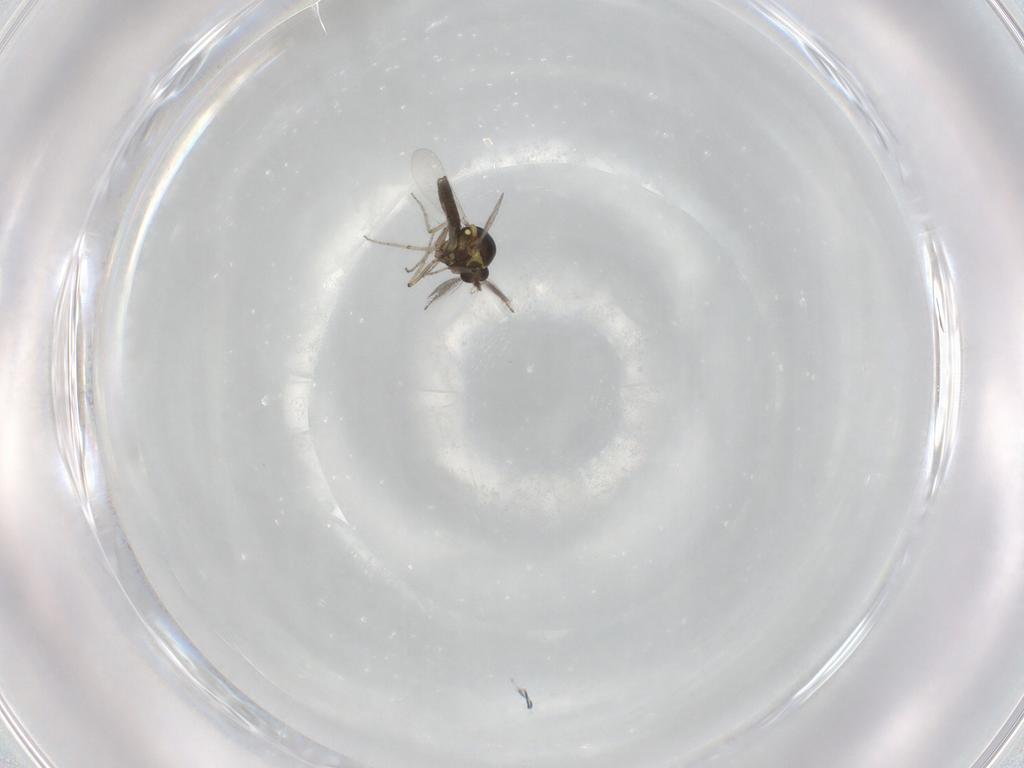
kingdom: Animalia
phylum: Arthropoda
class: Insecta
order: Diptera
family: Ceratopogonidae
